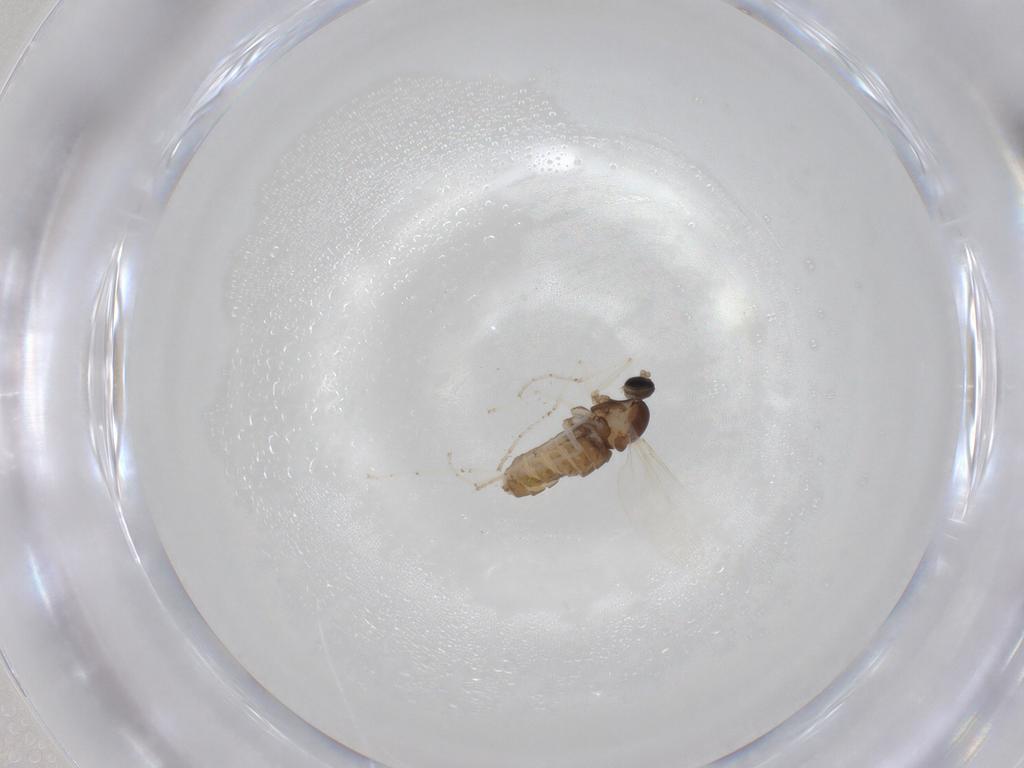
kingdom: Animalia
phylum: Arthropoda
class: Insecta
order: Diptera
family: Cecidomyiidae
